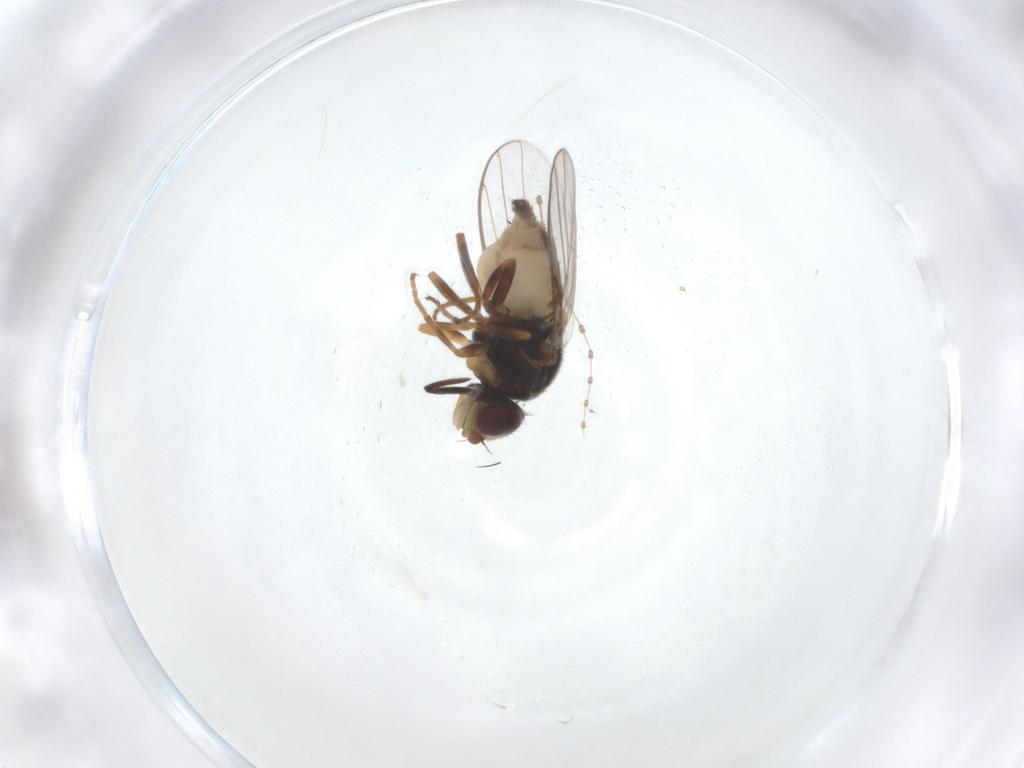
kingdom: Animalia
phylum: Arthropoda
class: Insecta
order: Diptera
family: Chloropidae
